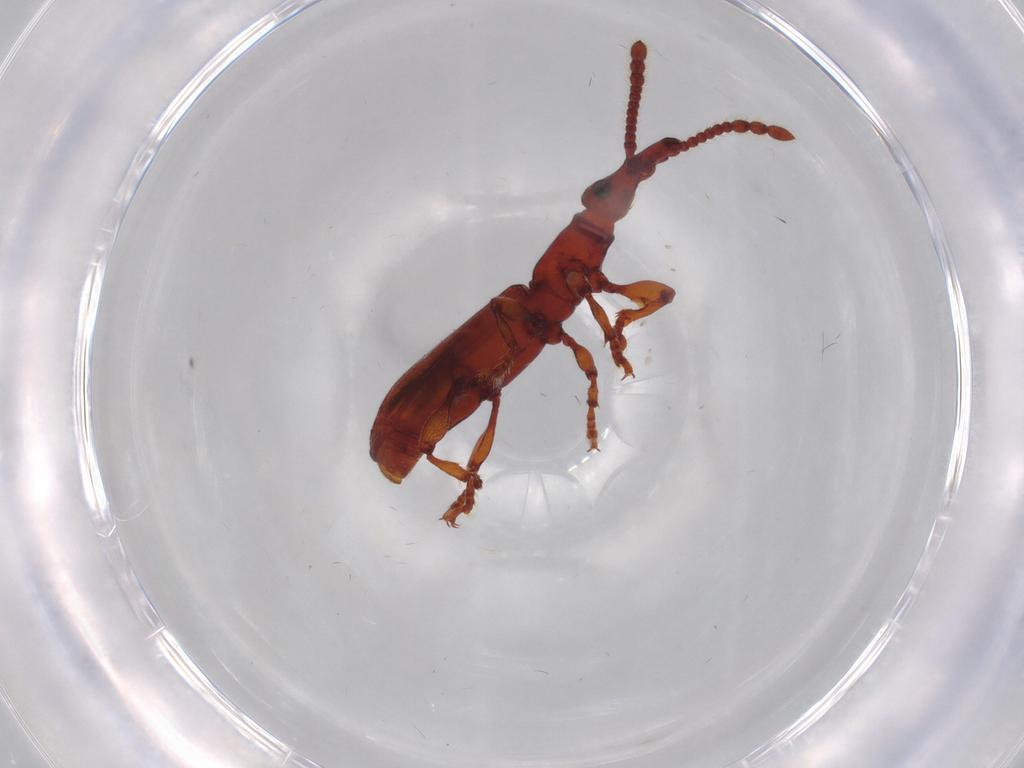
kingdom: Animalia
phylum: Arthropoda
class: Insecta
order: Coleoptera
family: Brentidae
